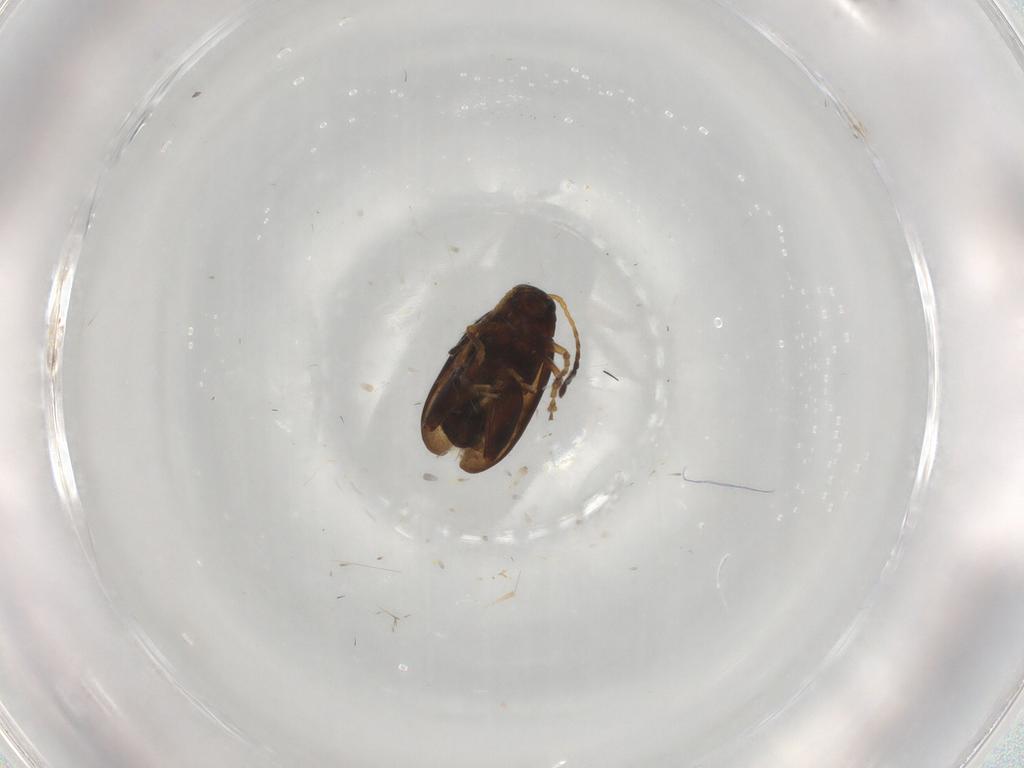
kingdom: Animalia
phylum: Arthropoda
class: Insecta
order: Coleoptera
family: Chrysomelidae
